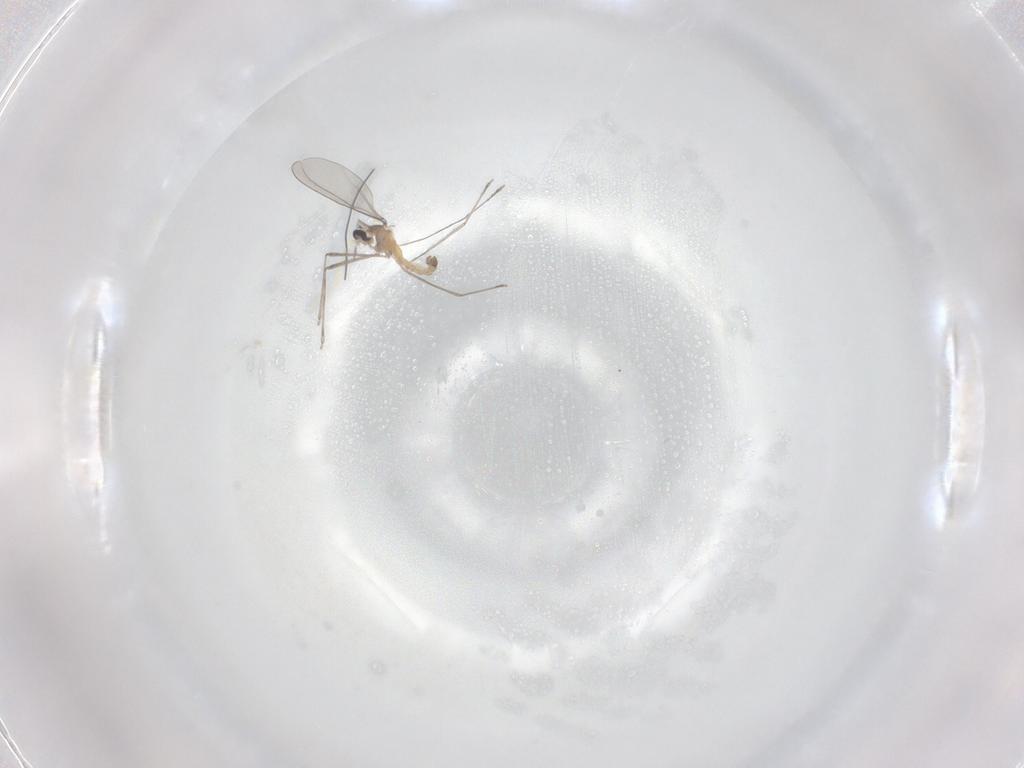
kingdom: Animalia
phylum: Arthropoda
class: Insecta
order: Diptera
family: Cecidomyiidae
